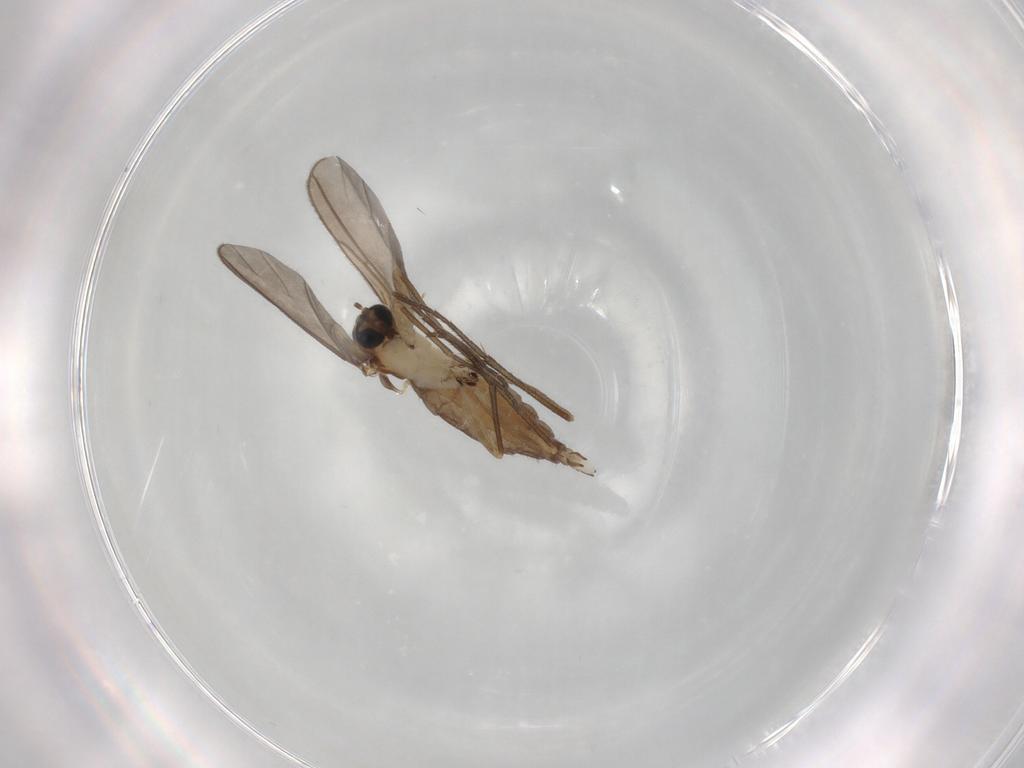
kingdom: Animalia
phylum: Arthropoda
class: Insecta
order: Diptera
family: Sciaridae
